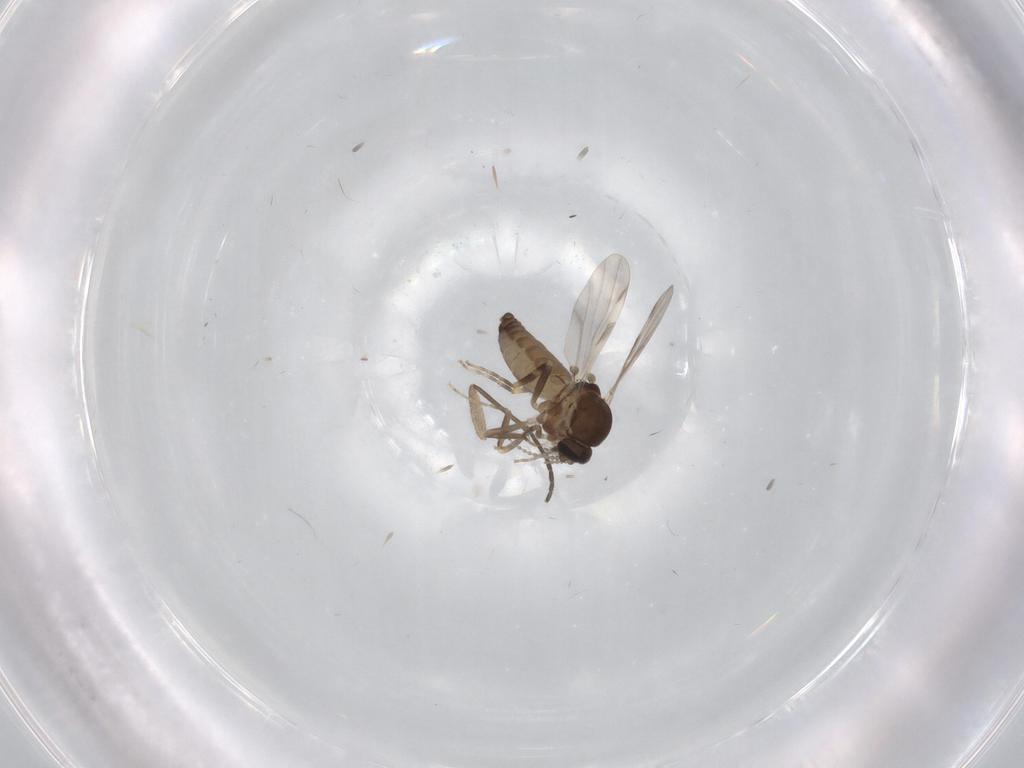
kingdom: Animalia
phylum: Arthropoda
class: Insecta
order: Diptera
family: Ceratopogonidae
